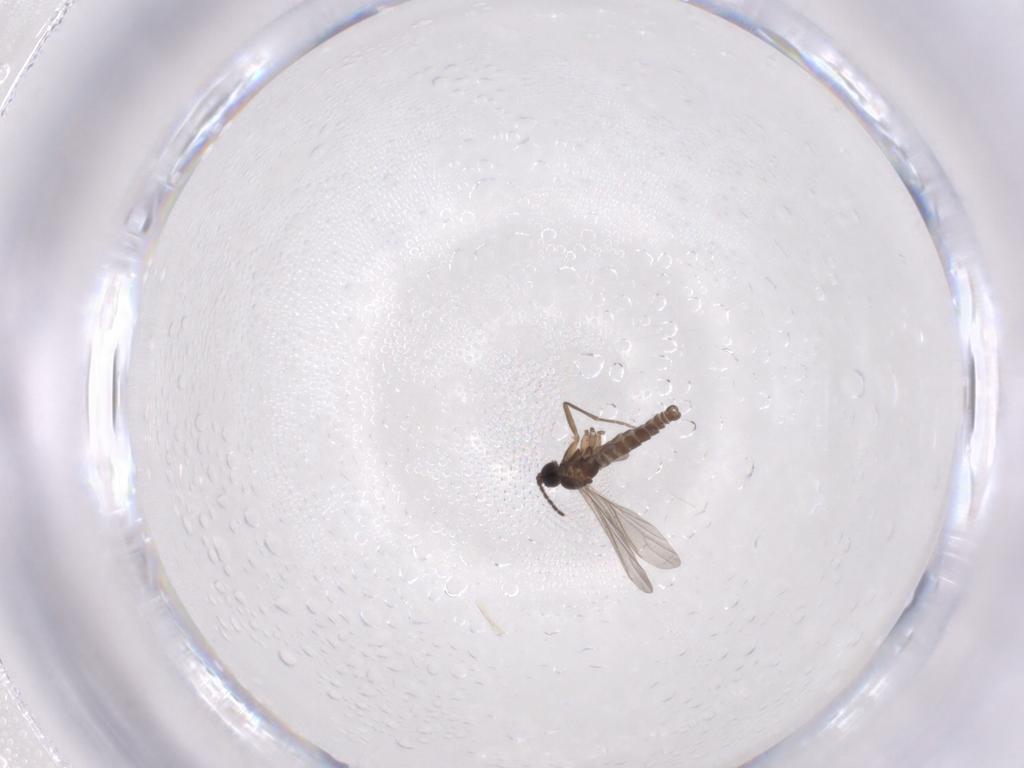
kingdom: Animalia
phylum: Arthropoda
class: Insecta
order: Diptera
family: Sciaridae
